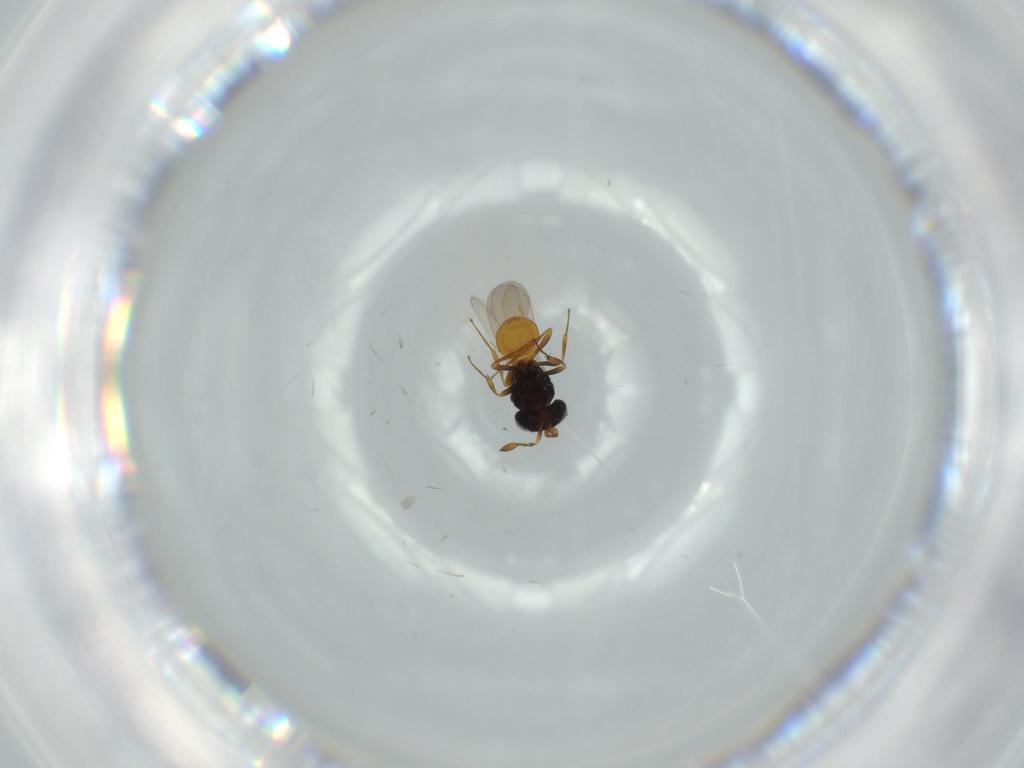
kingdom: Animalia
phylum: Arthropoda
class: Insecta
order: Hymenoptera
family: Scelionidae
